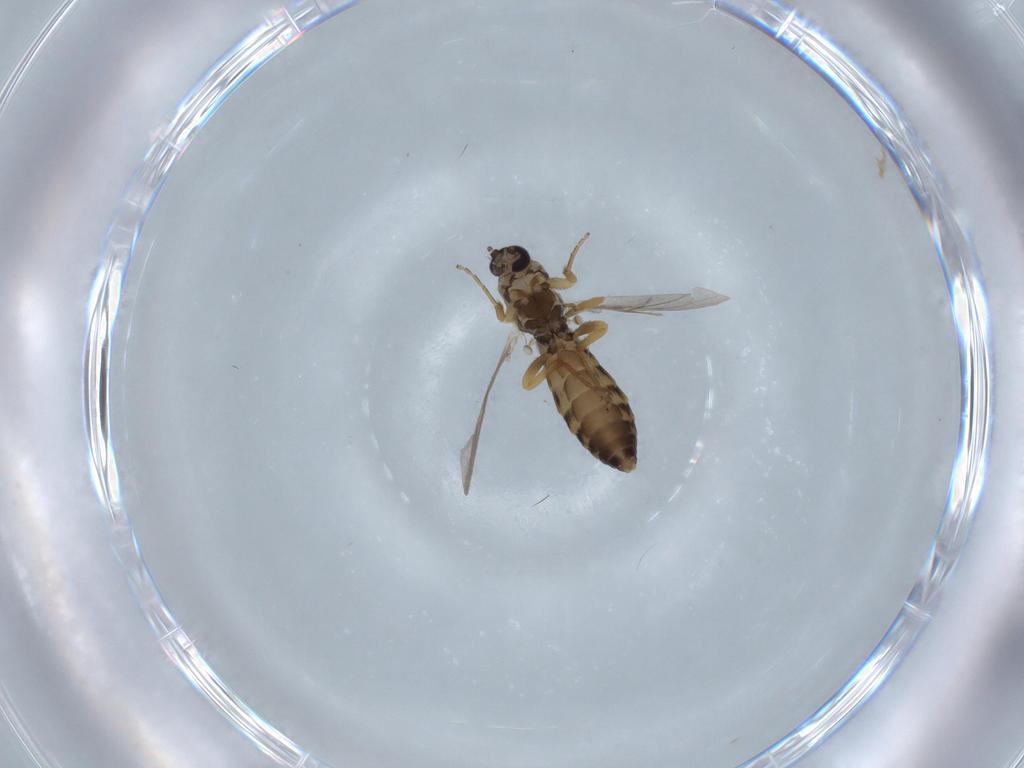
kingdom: Animalia
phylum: Arthropoda
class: Insecta
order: Diptera
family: Ceratopogonidae
